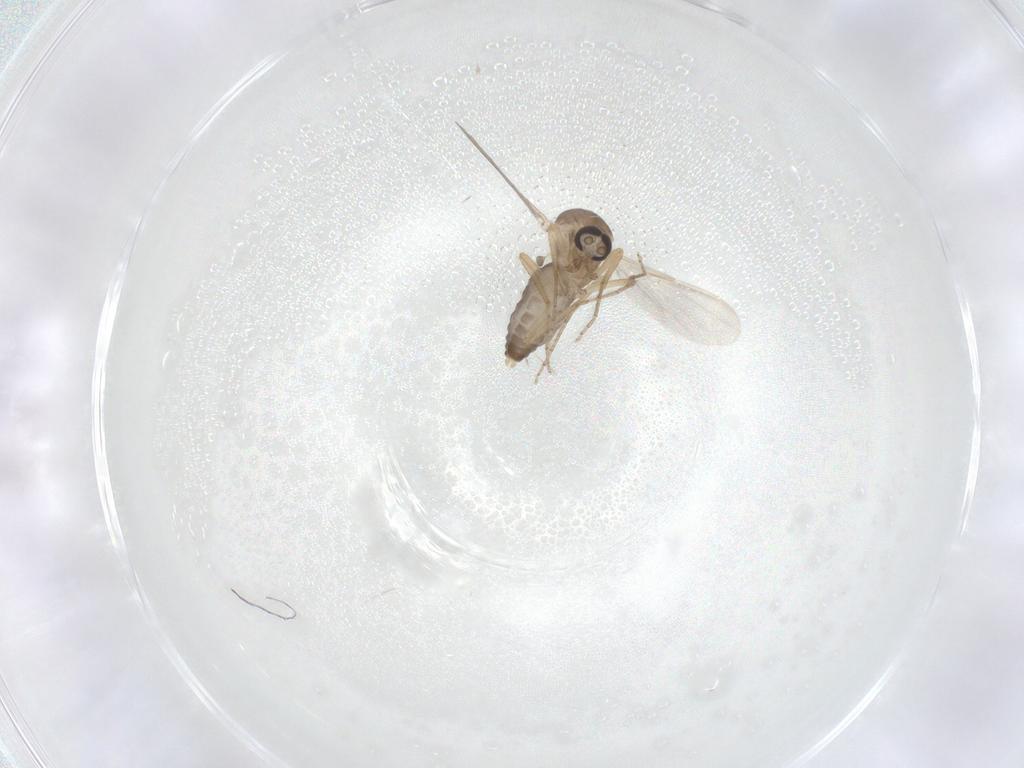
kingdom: Animalia
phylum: Arthropoda
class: Insecta
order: Diptera
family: Ceratopogonidae
